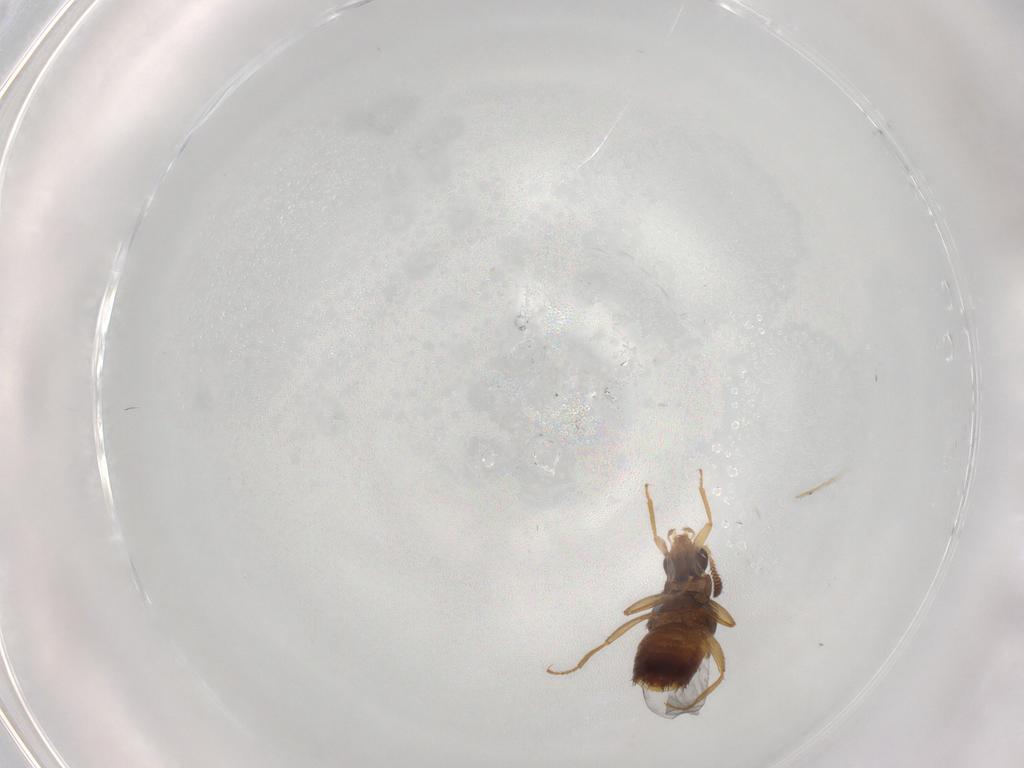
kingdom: Animalia
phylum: Arthropoda
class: Insecta
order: Coleoptera
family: Staphylinidae
